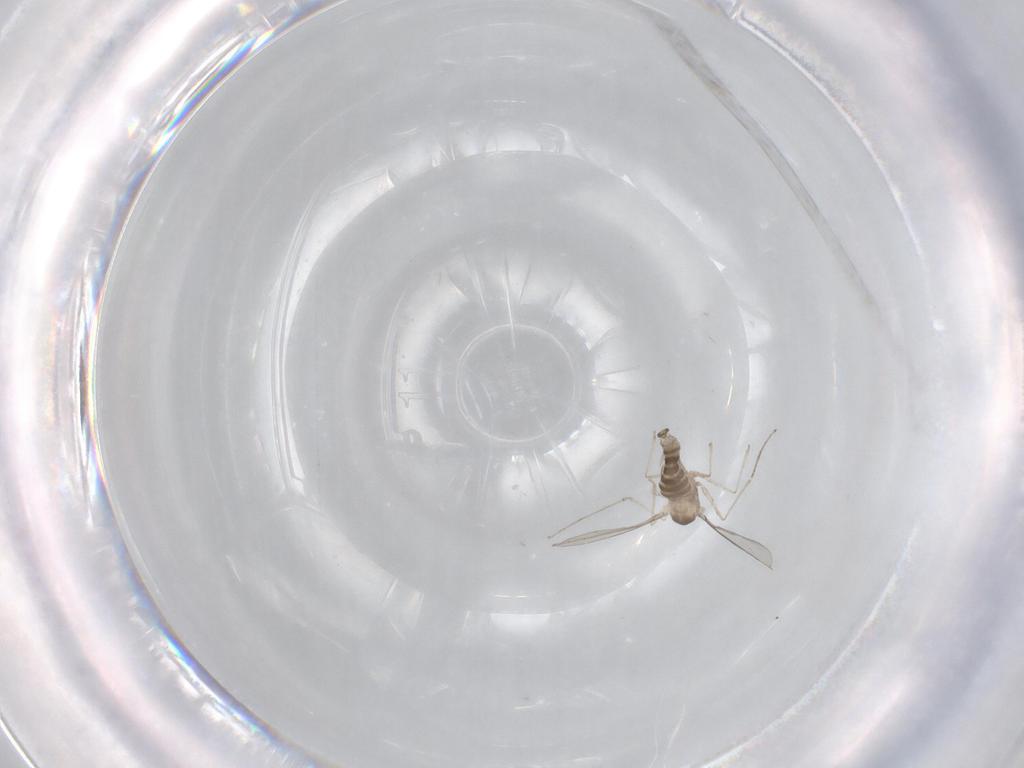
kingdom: Animalia
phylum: Arthropoda
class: Insecta
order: Diptera
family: Cecidomyiidae
